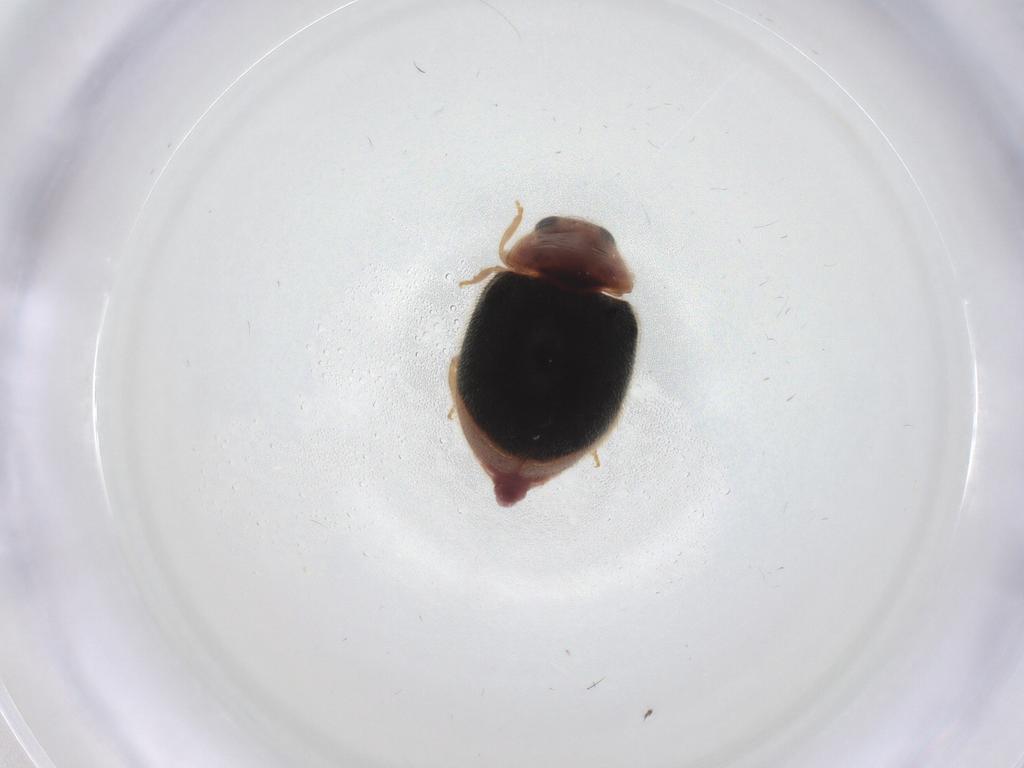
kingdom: Animalia
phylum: Arthropoda
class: Insecta
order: Coleoptera
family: Coccinellidae
